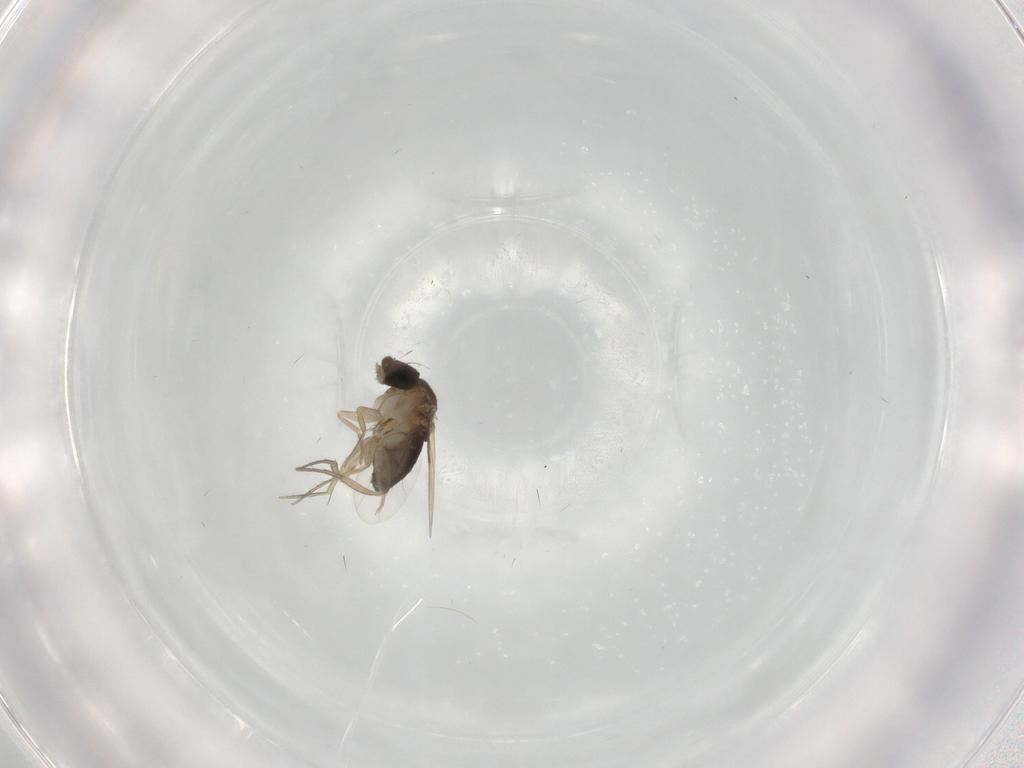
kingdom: Animalia
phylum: Arthropoda
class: Insecta
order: Diptera
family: Phoridae
